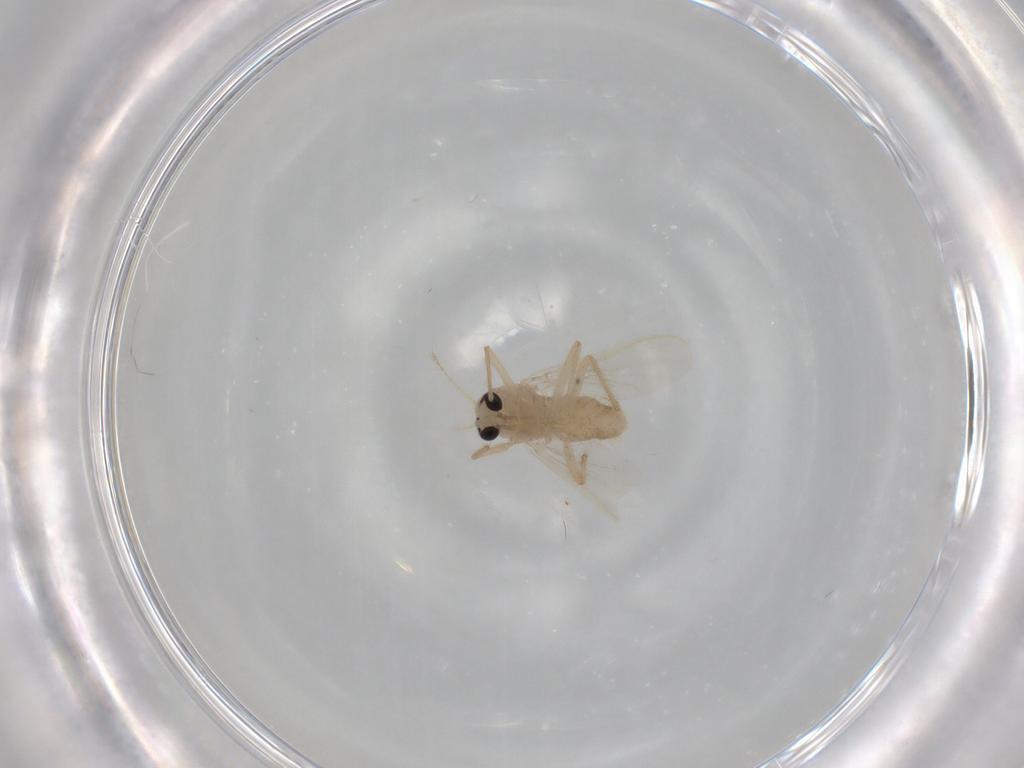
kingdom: Animalia
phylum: Arthropoda
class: Insecta
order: Diptera
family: Chironomidae
